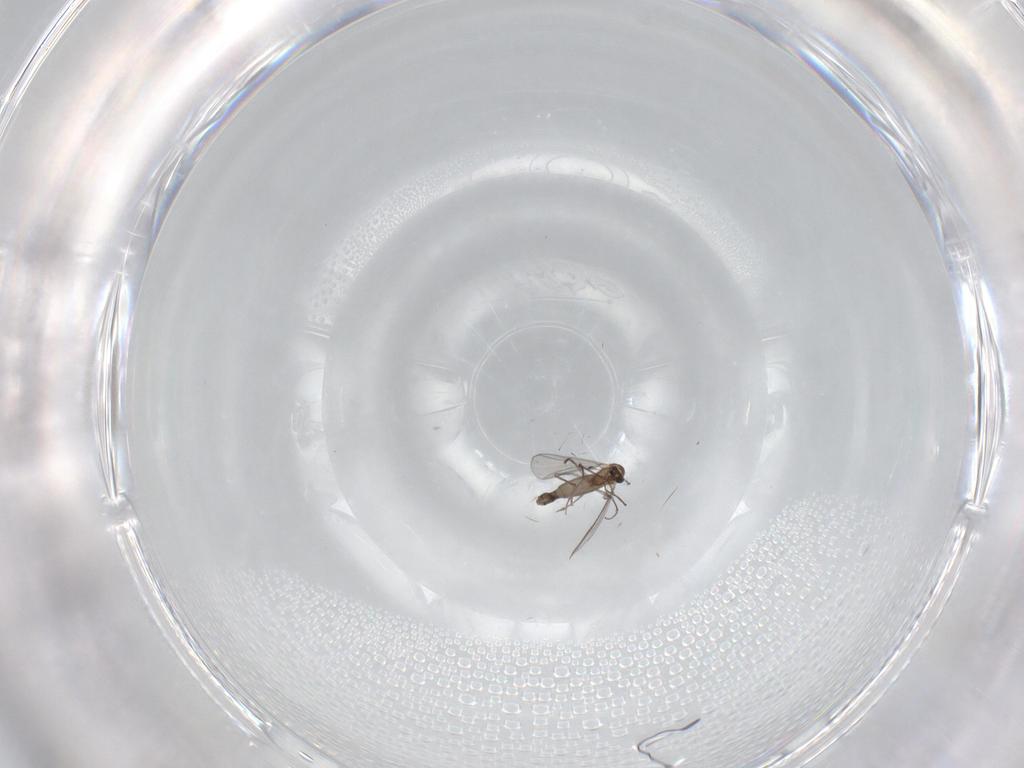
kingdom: Animalia
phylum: Arthropoda
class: Insecta
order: Diptera
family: Chironomidae
